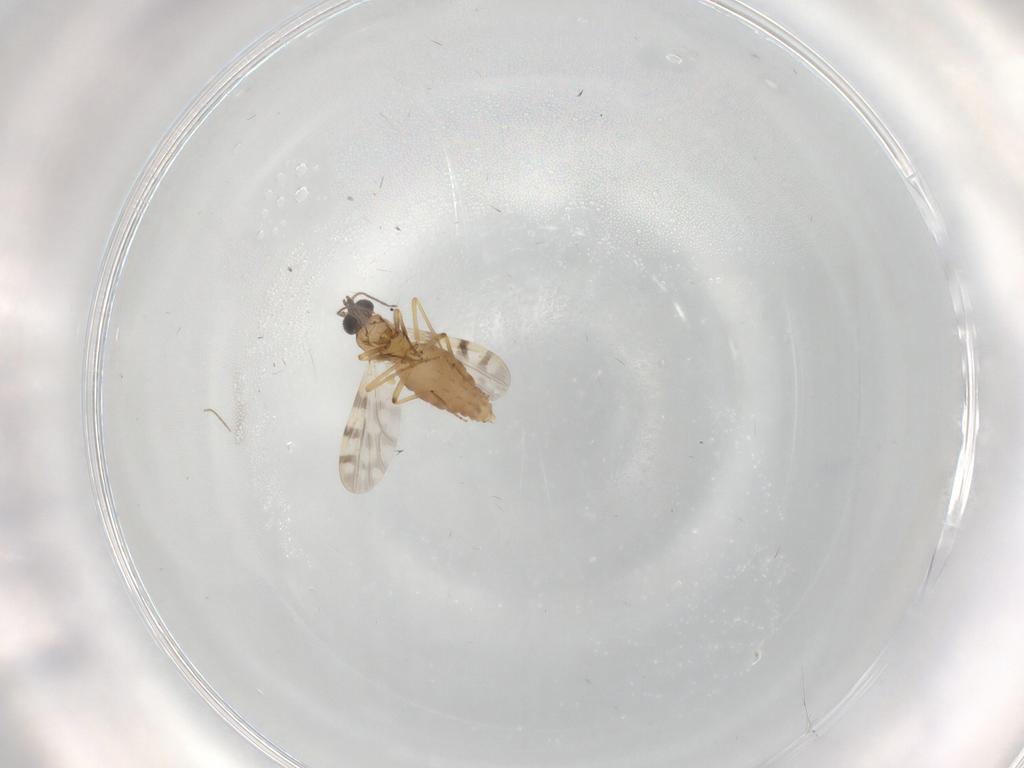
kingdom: Animalia
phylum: Arthropoda
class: Insecta
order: Diptera
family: Cecidomyiidae
